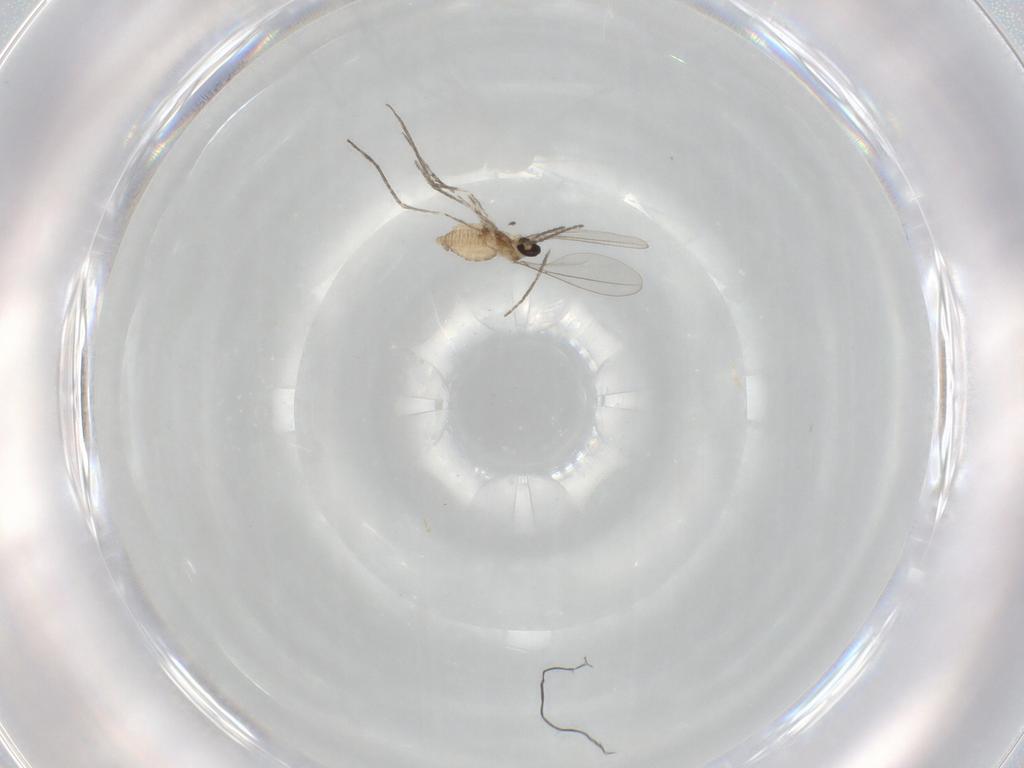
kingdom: Animalia
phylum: Arthropoda
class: Insecta
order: Diptera
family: Cecidomyiidae
